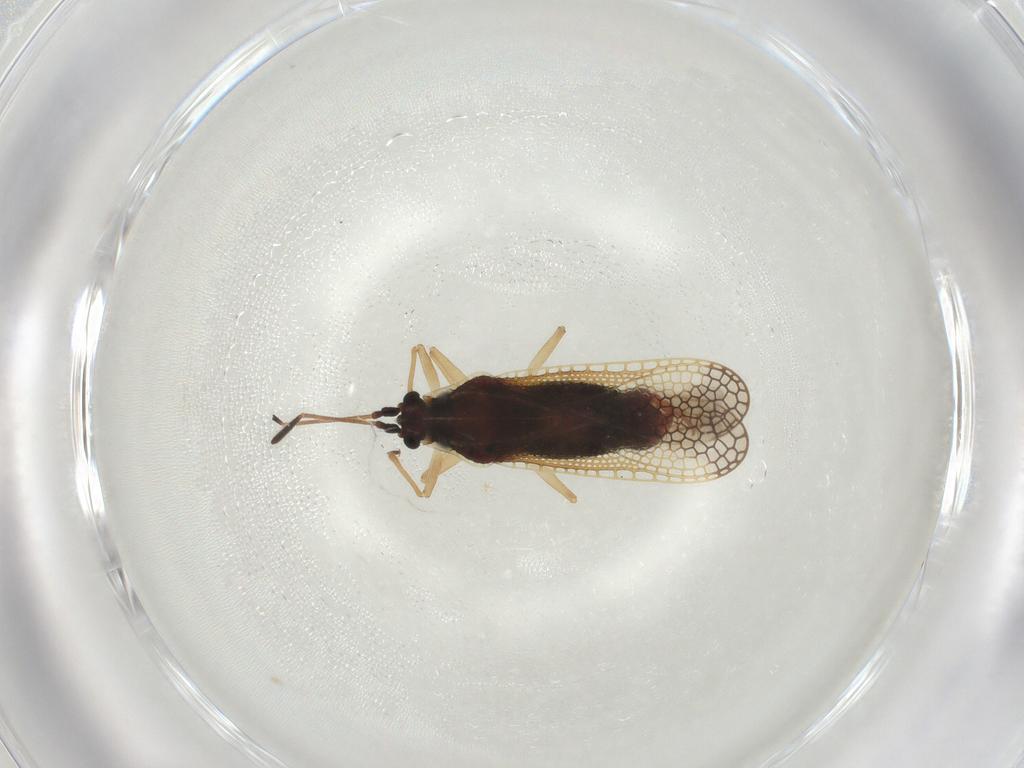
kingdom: Animalia
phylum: Arthropoda
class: Insecta
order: Hemiptera
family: Tingidae
